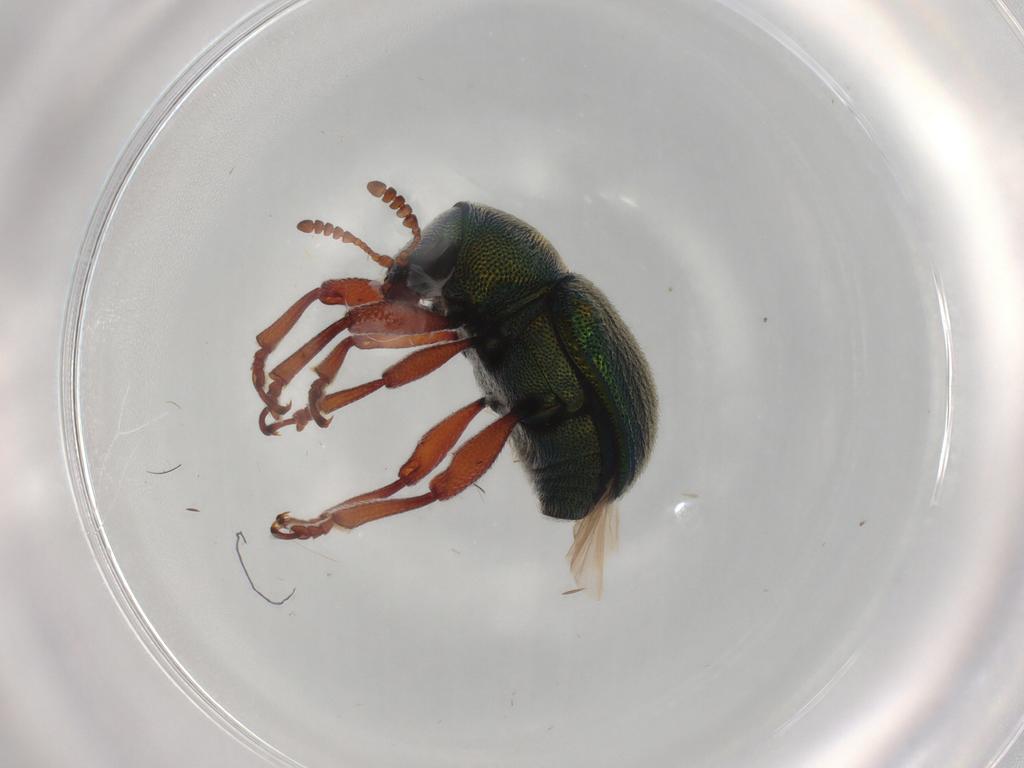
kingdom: Animalia
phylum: Arthropoda
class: Insecta
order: Coleoptera
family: Chrysomelidae
